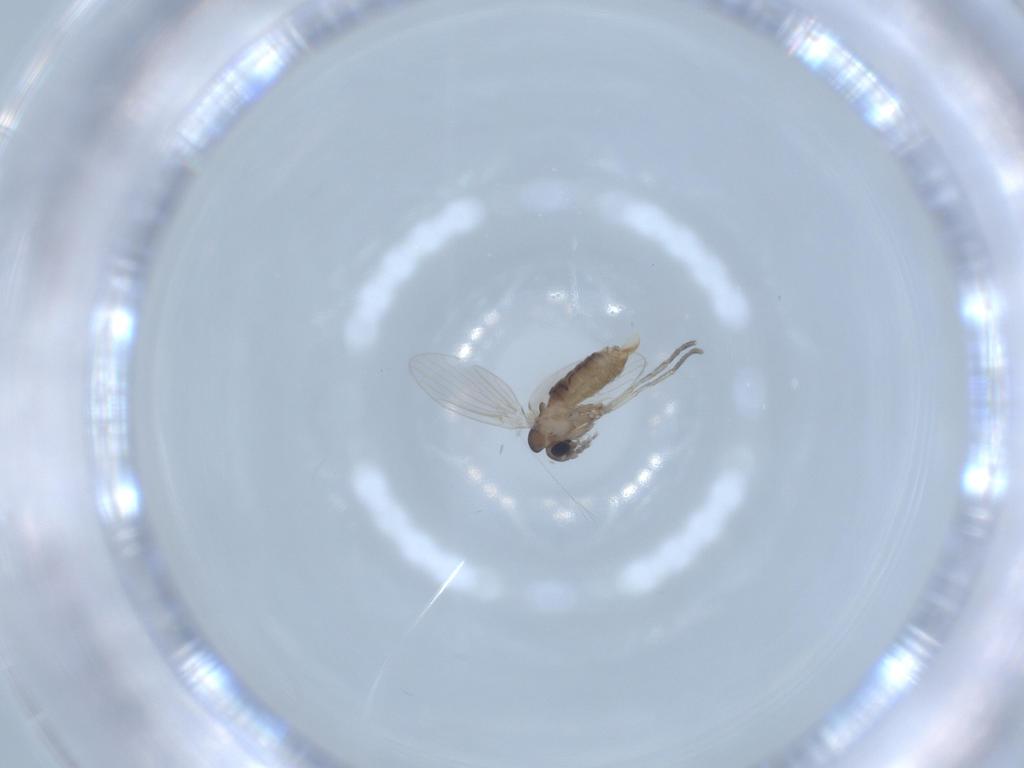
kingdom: Animalia
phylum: Arthropoda
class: Insecta
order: Diptera
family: Psychodidae
